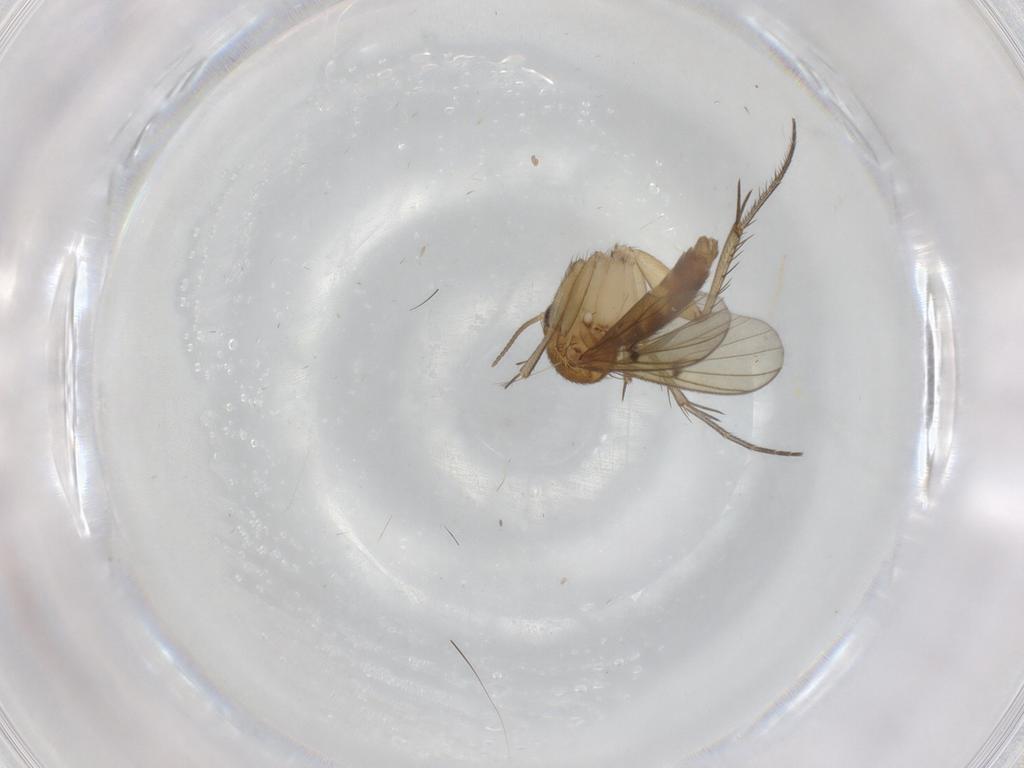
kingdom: Animalia
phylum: Arthropoda
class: Insecta
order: Diptera
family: Mycetophilidae
